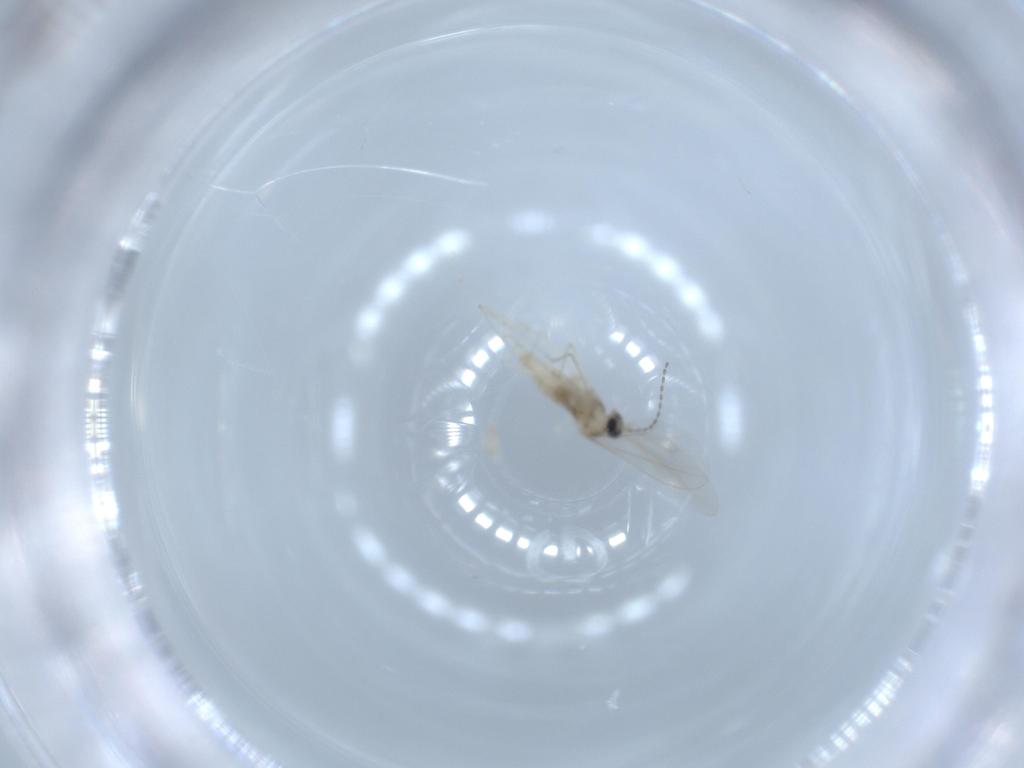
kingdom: Animalia
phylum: Arthropoda
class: Insecta
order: Diptera
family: Cecidomyiidae
